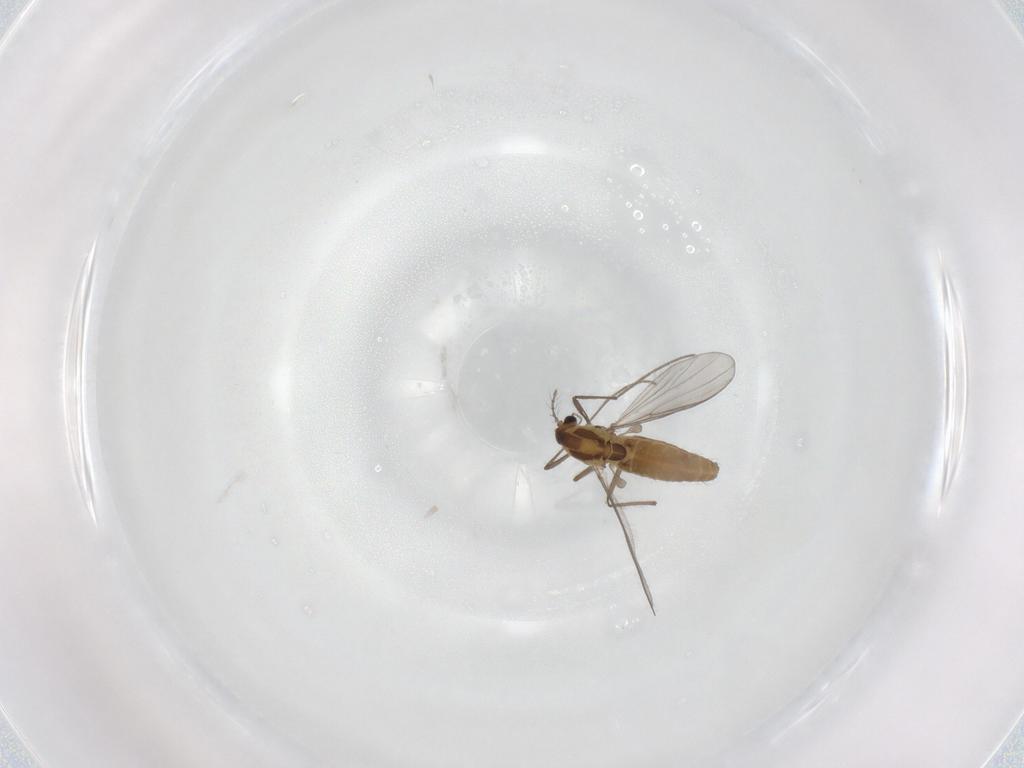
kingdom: Animalia
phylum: Arthropoda
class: Insecta
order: Diptera
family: Chironomidae
